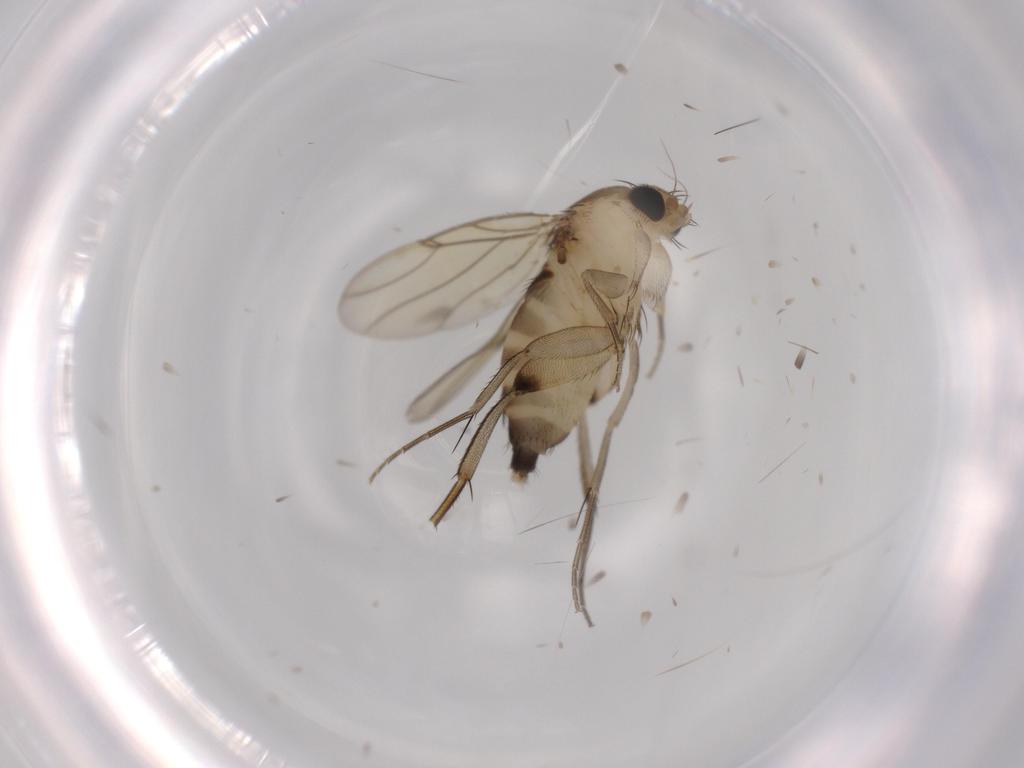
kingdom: Animalia
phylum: Arthropoda
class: Insecta
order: Diptera
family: Phoridae
